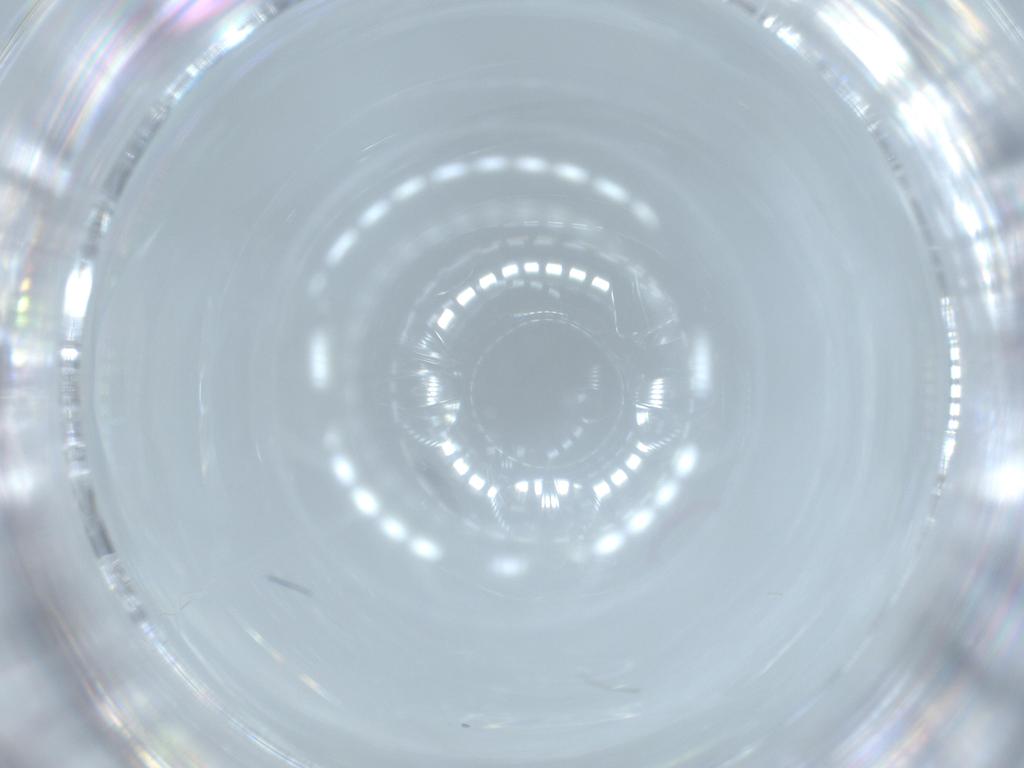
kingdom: Animalia
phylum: Arthropoda
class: Insecta
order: Hemiptera
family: Aleyrodidae
